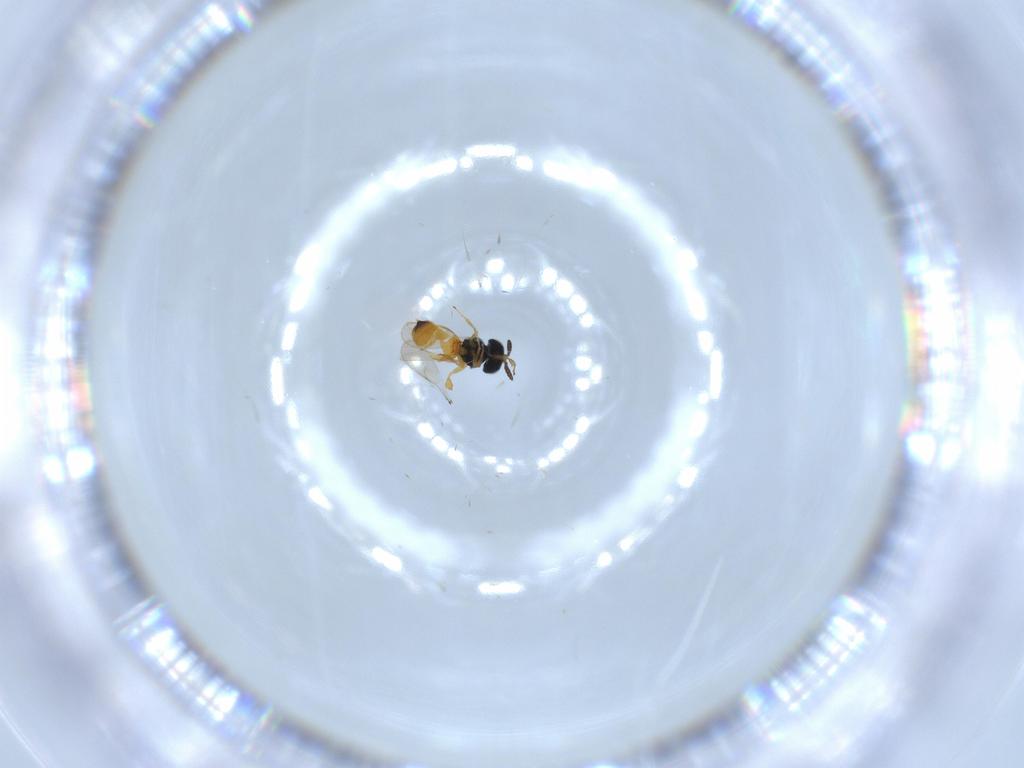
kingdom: Animalia
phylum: Arthropoda
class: Insecta
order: Hymenoptera
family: Scelionidae
